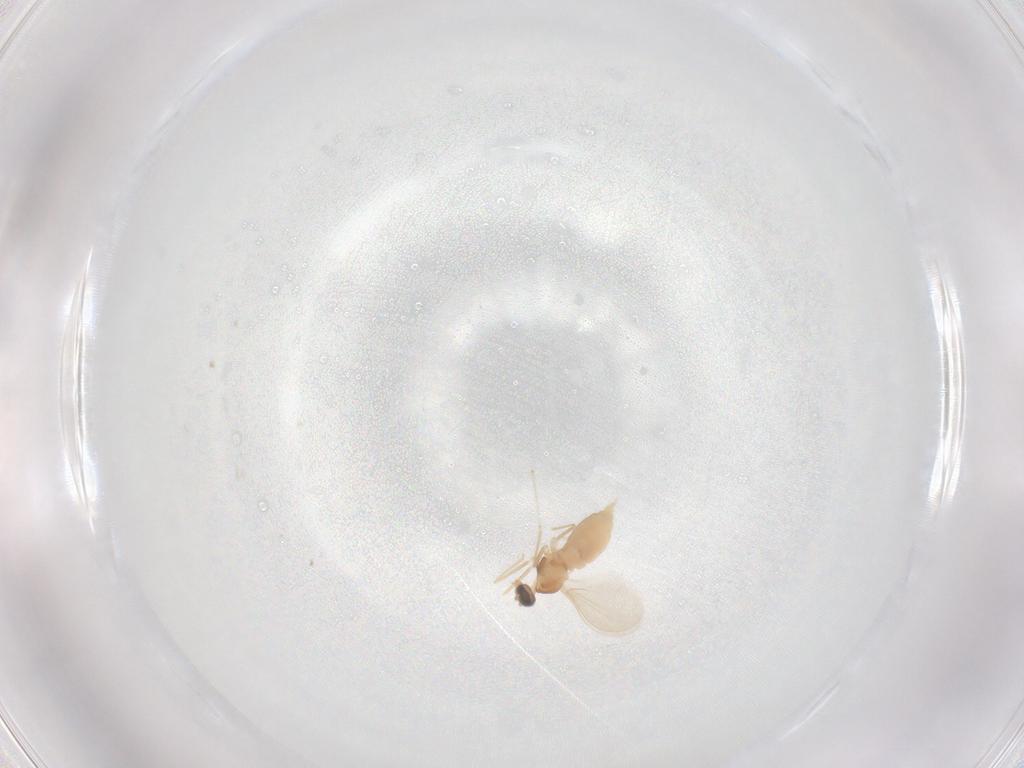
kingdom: Animalia
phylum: Arthropoda
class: Insecta
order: Diptera
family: Cecidomyiidae
